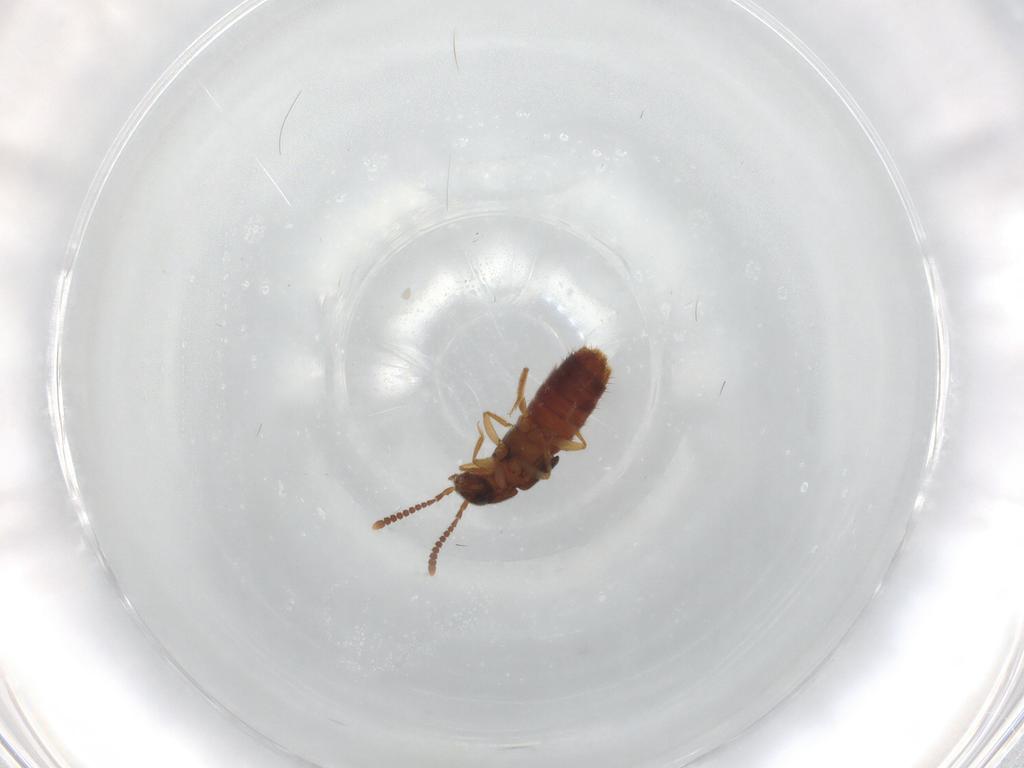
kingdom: Animalia
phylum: Arthropoda
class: Insecta
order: Coleoptera
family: Staphylinidae
